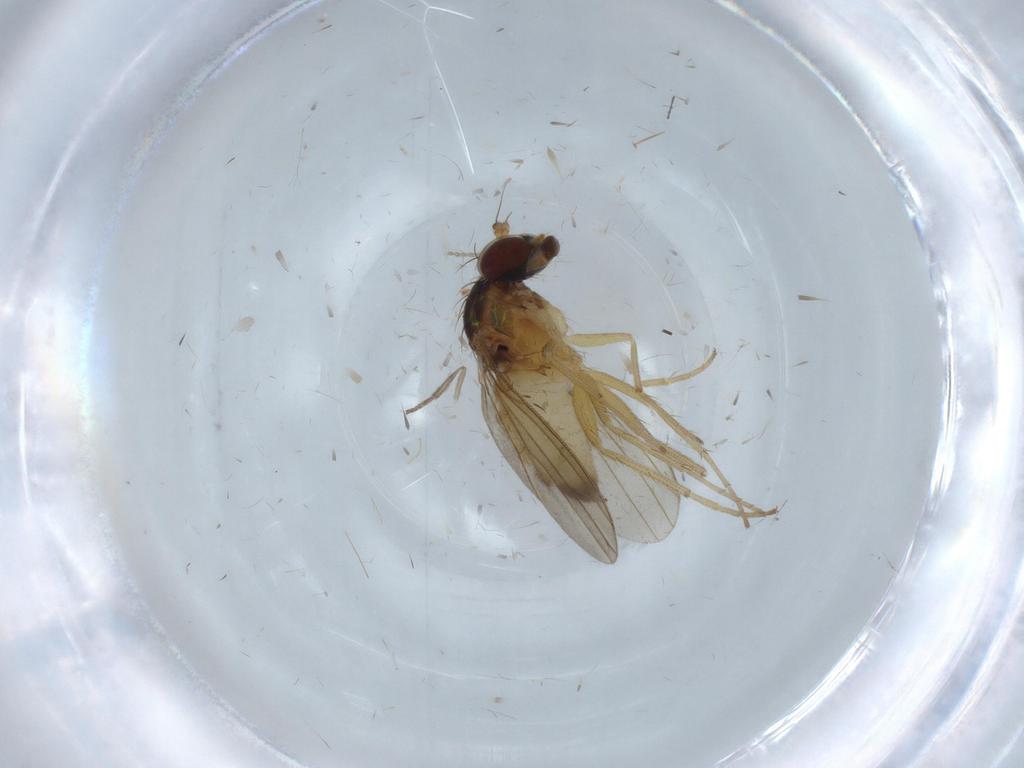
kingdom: Animalia
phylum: Arthropoda
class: Insecta
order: Diptera
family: Dolichopodidae
